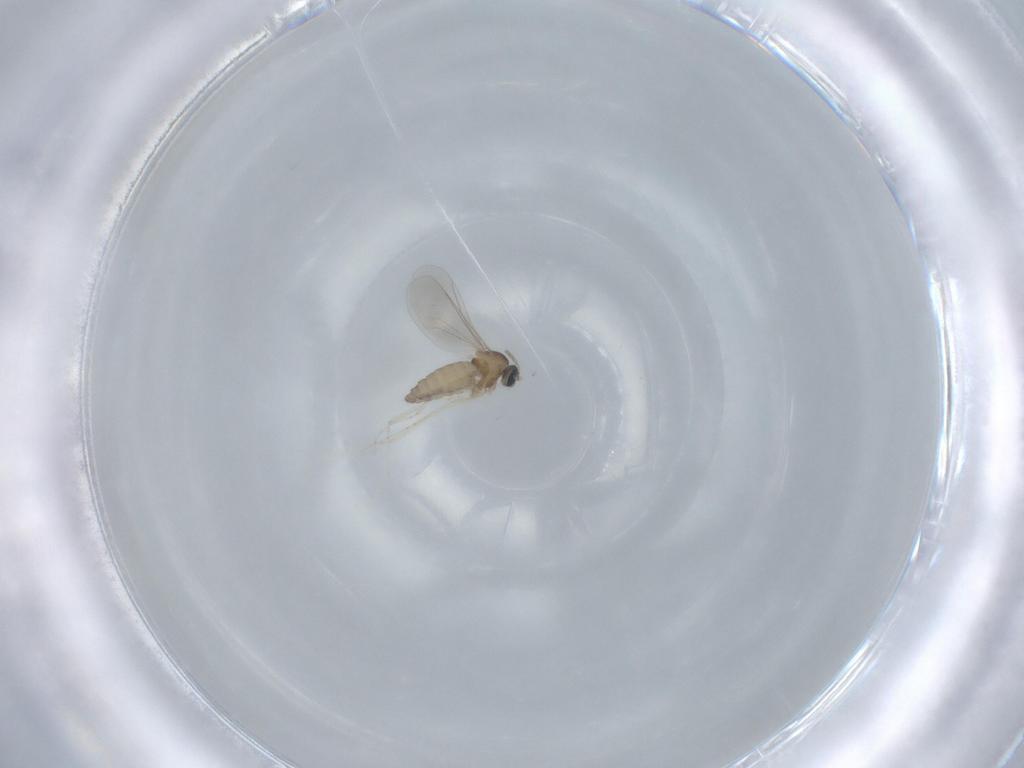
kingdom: Animalia
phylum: Arthropoda
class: Insecta
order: Diptera
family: Cecidomyiidae
